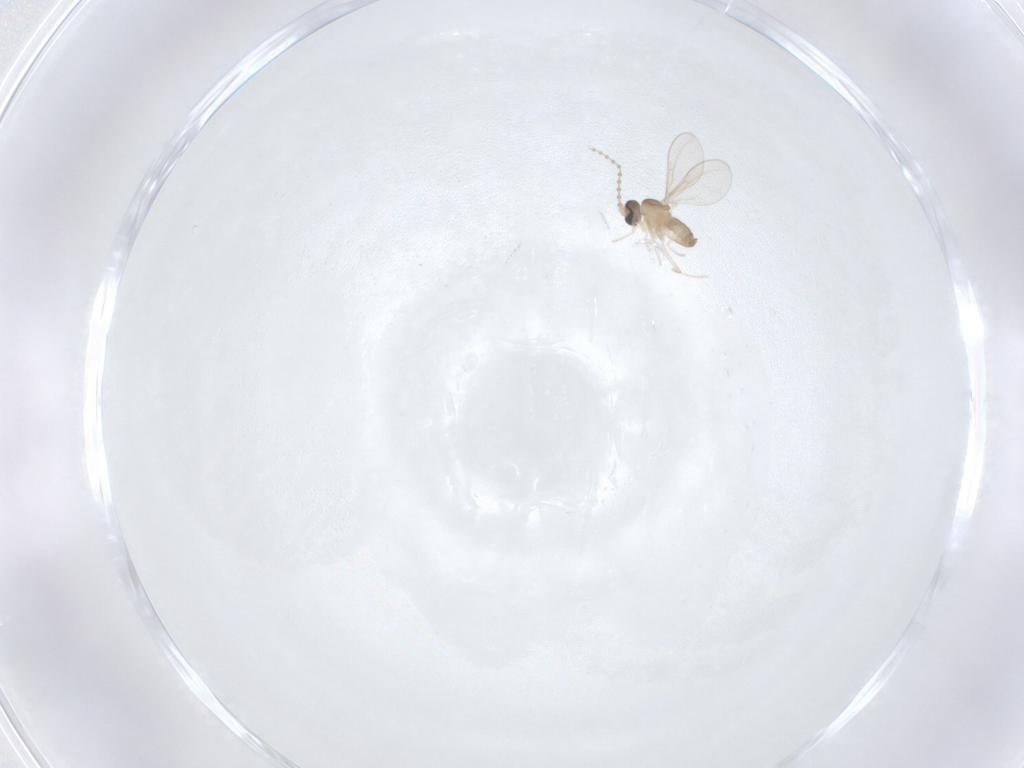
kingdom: Animalia
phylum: Arthropoda
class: Insecta
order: Diptera
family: Cecidomyiidae
